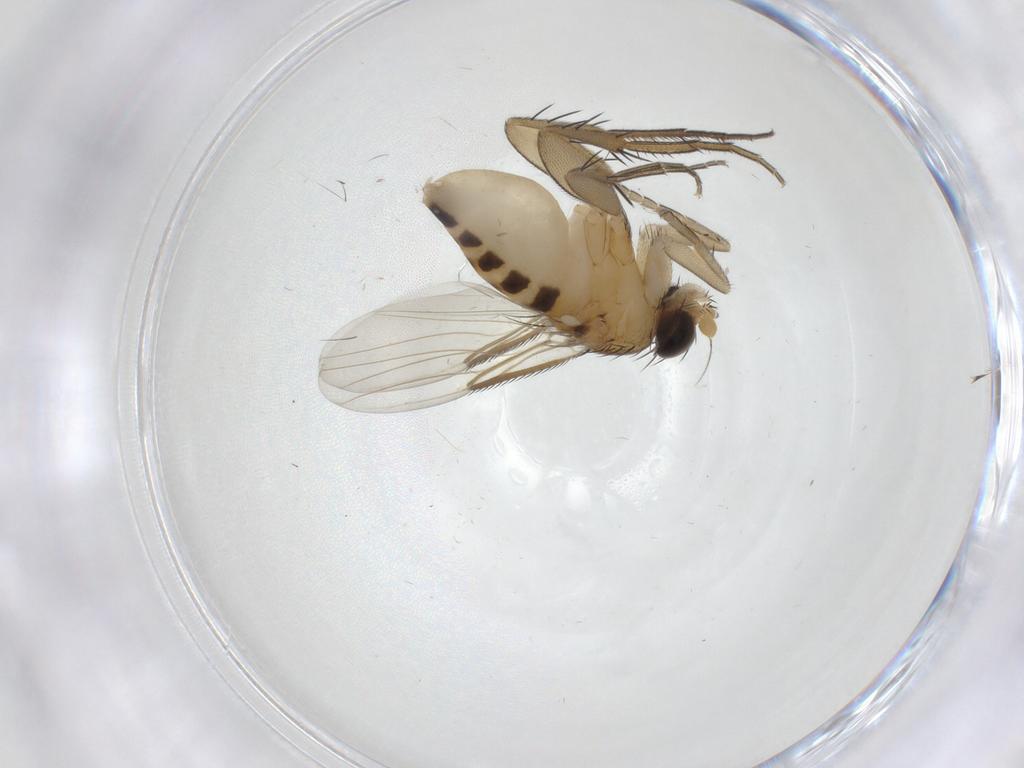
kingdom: Animalia
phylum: Arthropoda
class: Insecta
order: Diptera
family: Phoridae
